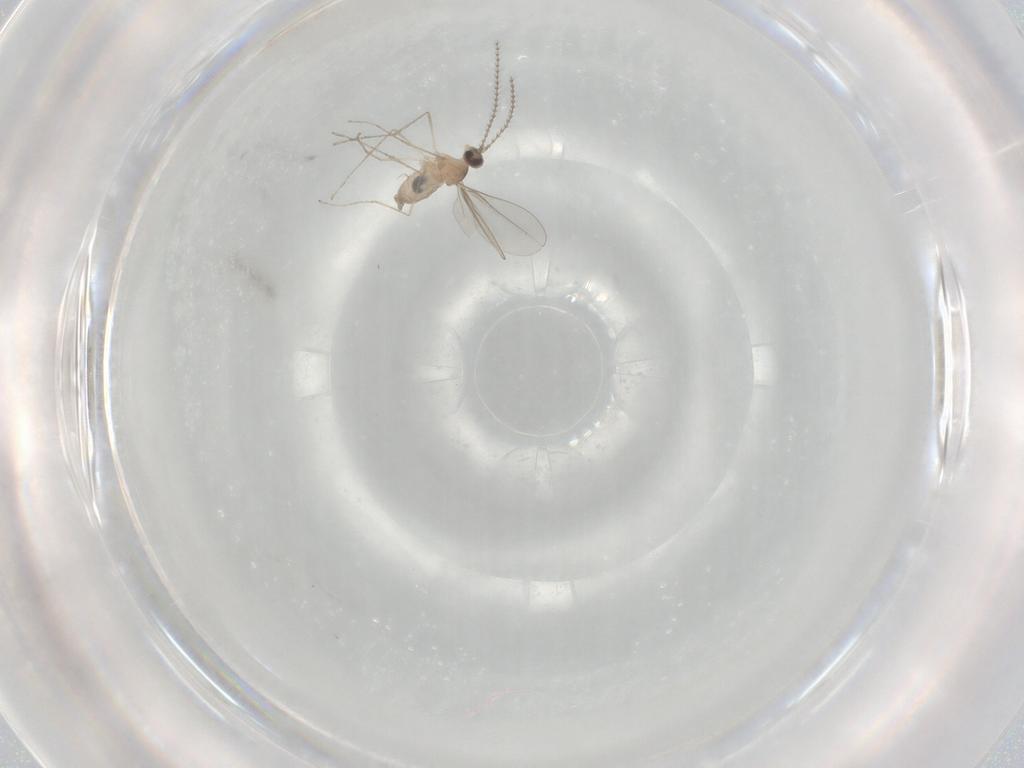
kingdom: Animalia
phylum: Arthropoda
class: Insecta
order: Diptera
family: Cecidomyiidae
